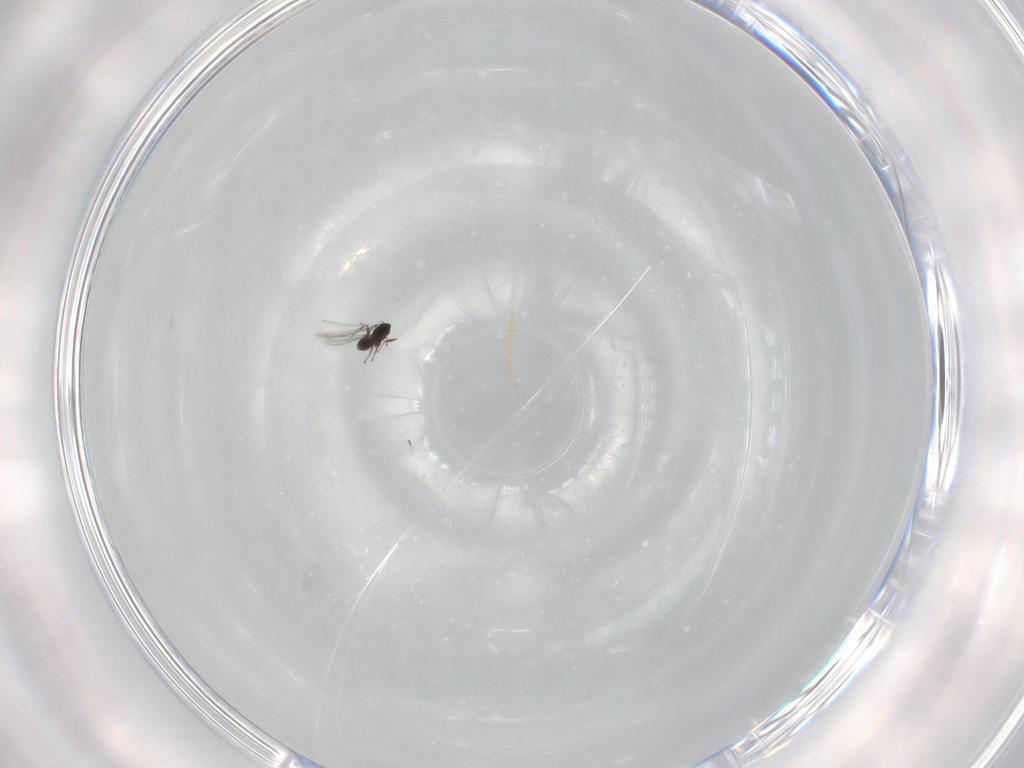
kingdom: Animalia
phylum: Arthropoda
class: Insecta
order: Hymenoptera
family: Mymaridae
